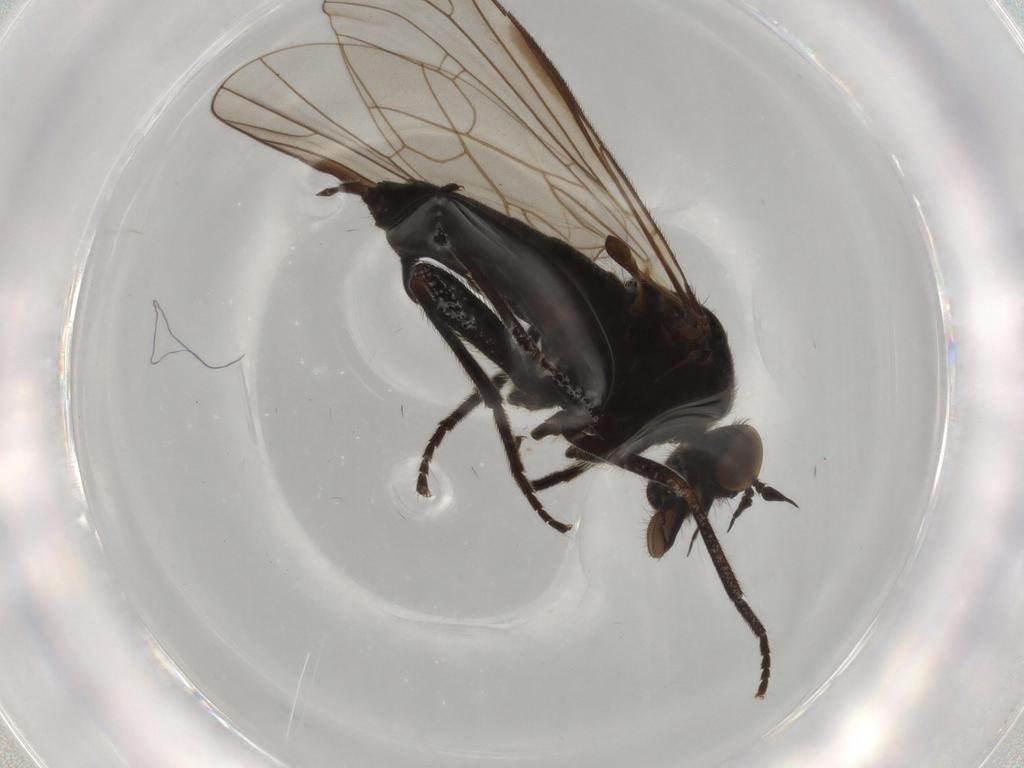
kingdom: Animalia
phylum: Arthropoda
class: Insecta
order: Diptera
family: Empididae
